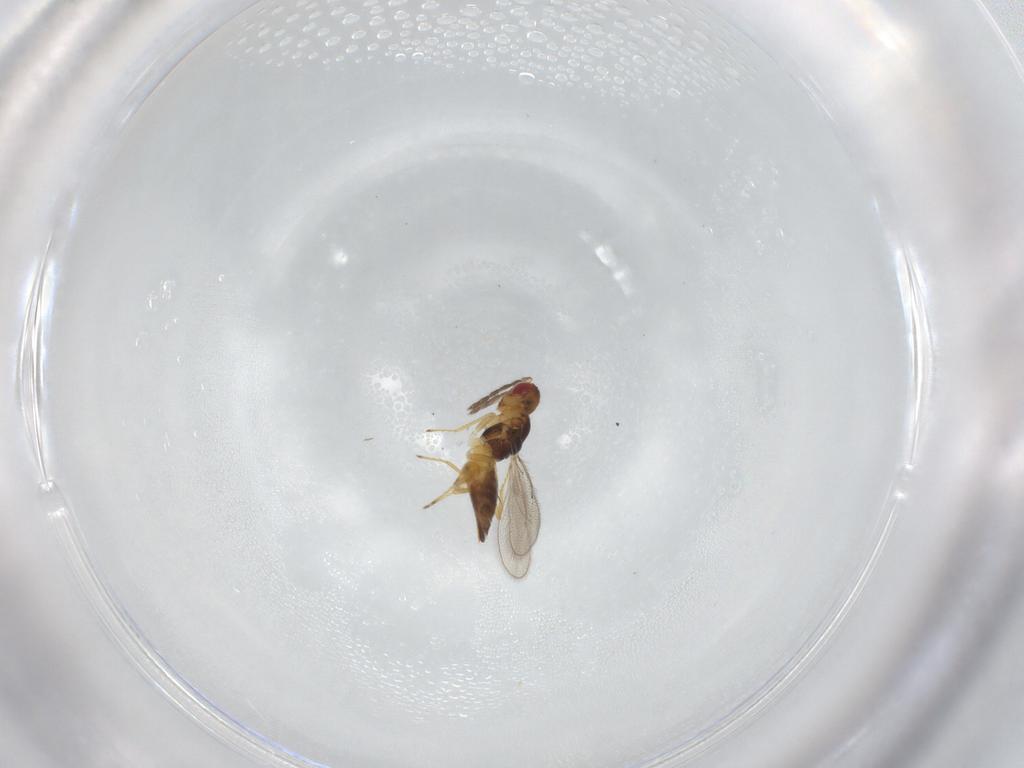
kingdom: Animalia
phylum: Arthropoda
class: Insecta
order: Hymenoptera
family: Eulophidae
